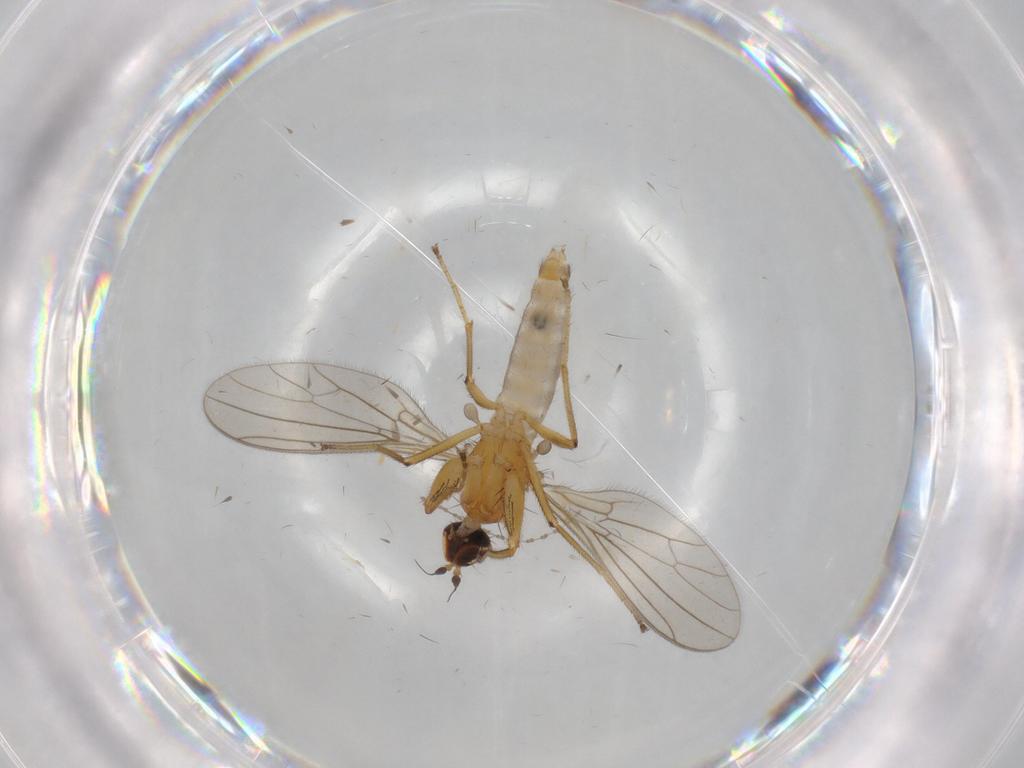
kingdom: Animalia
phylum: Arthropoda
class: Insecta
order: Diptera
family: Empididae
